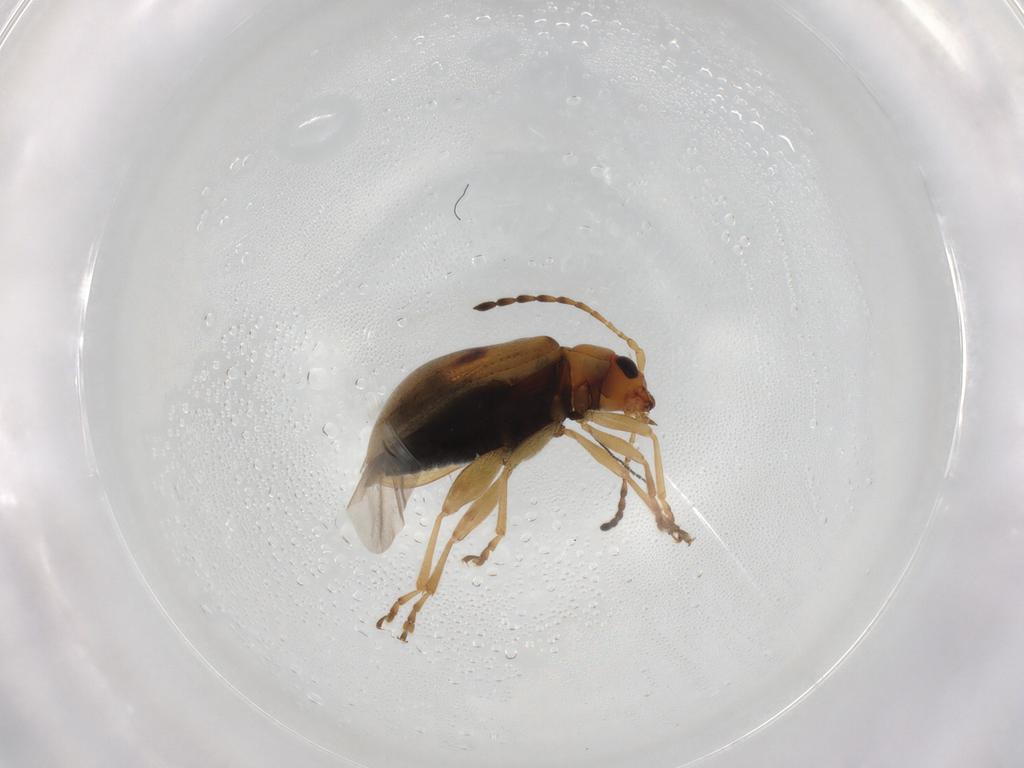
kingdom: Animalia
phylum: Arthropoda
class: Insecta
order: Coleoptera
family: Chrysomelidae
